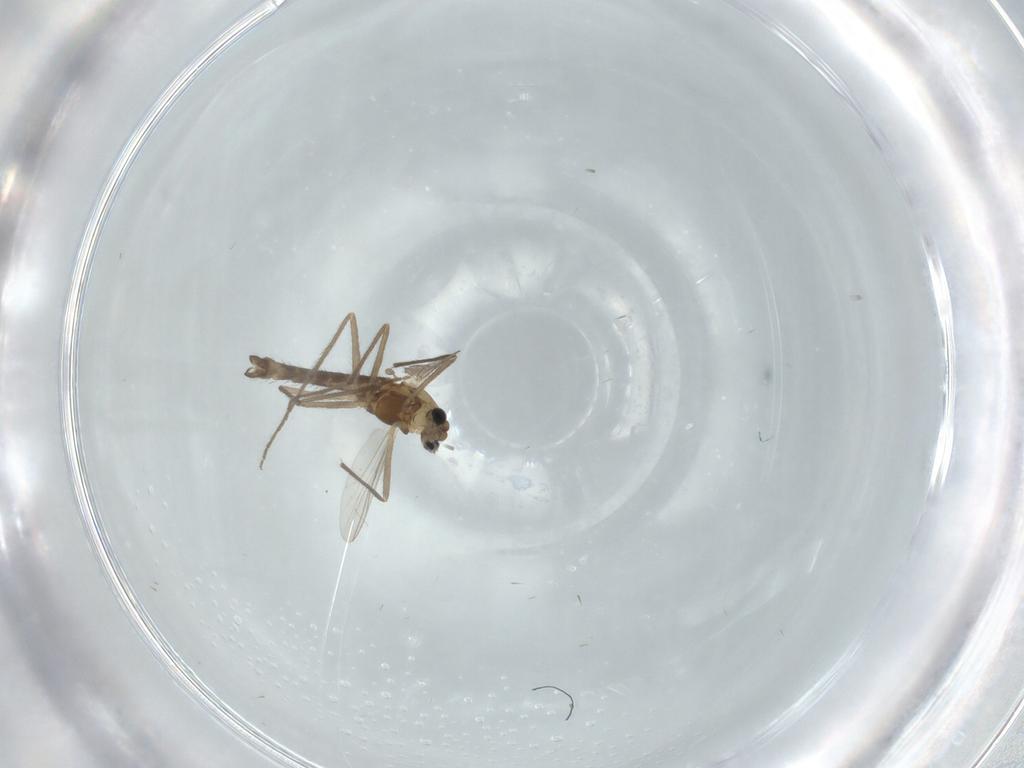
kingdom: Animalia
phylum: Arthropoda
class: Insecta
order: Diptera
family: Chironomidae
